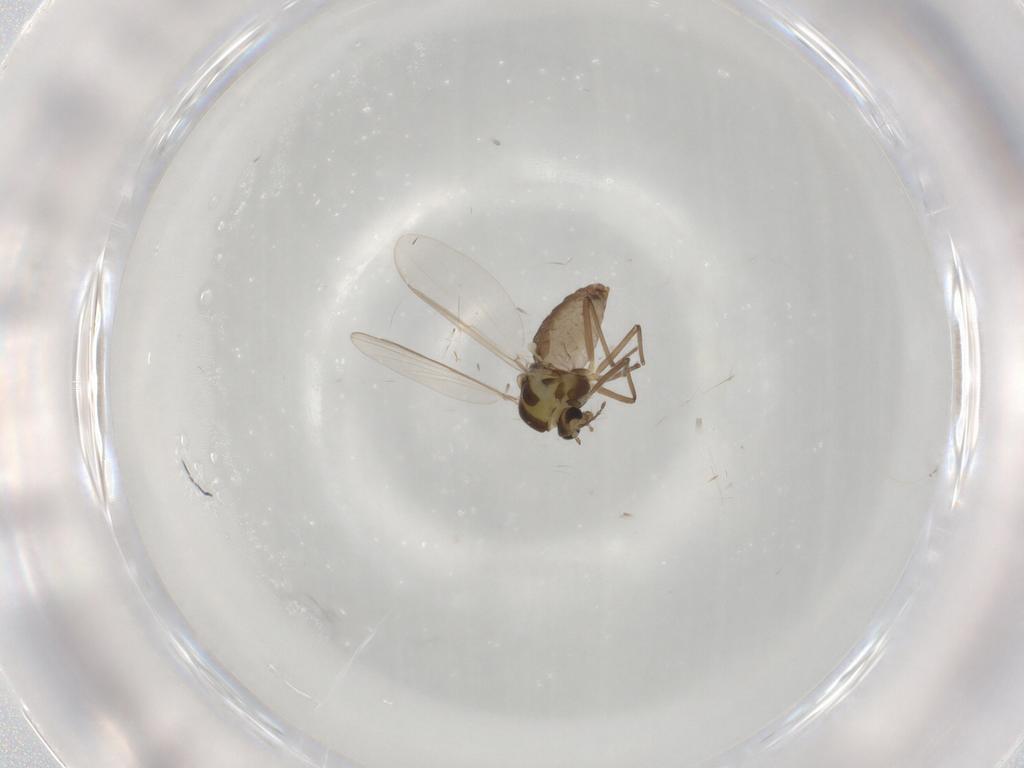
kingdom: Animalia
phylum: Arthropoda
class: Insecta
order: Diptera
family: Chironomidae
